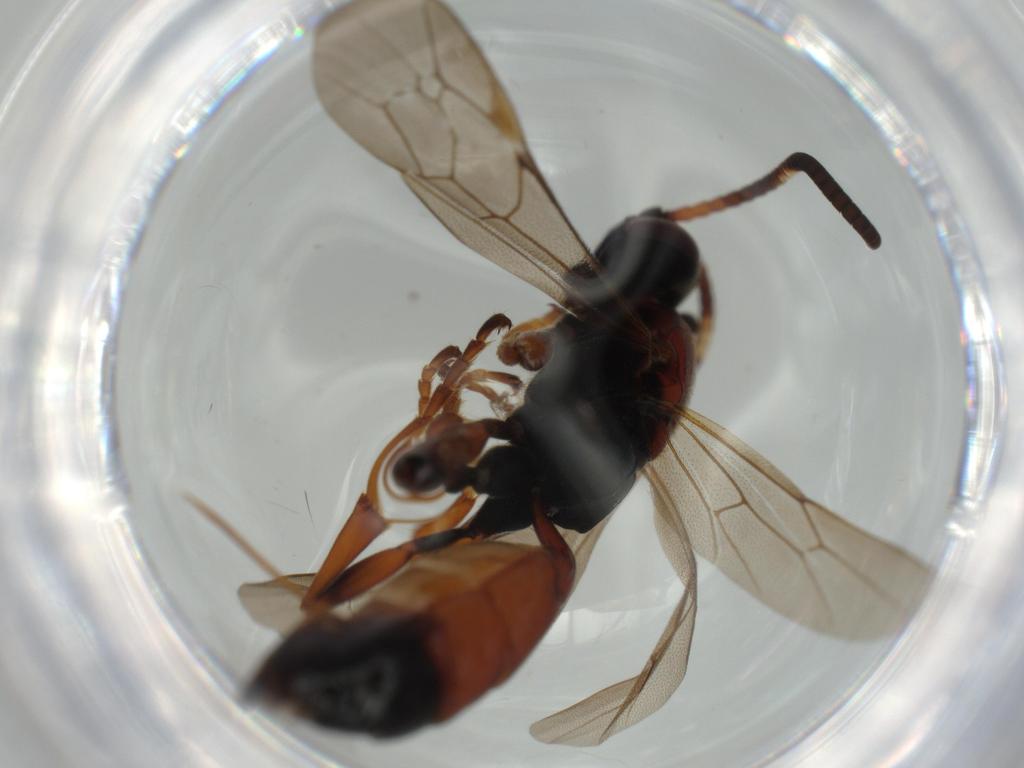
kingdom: Animalia
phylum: Arthropoda
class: Insecta
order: Hymenoptera
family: Ichneumonidae
